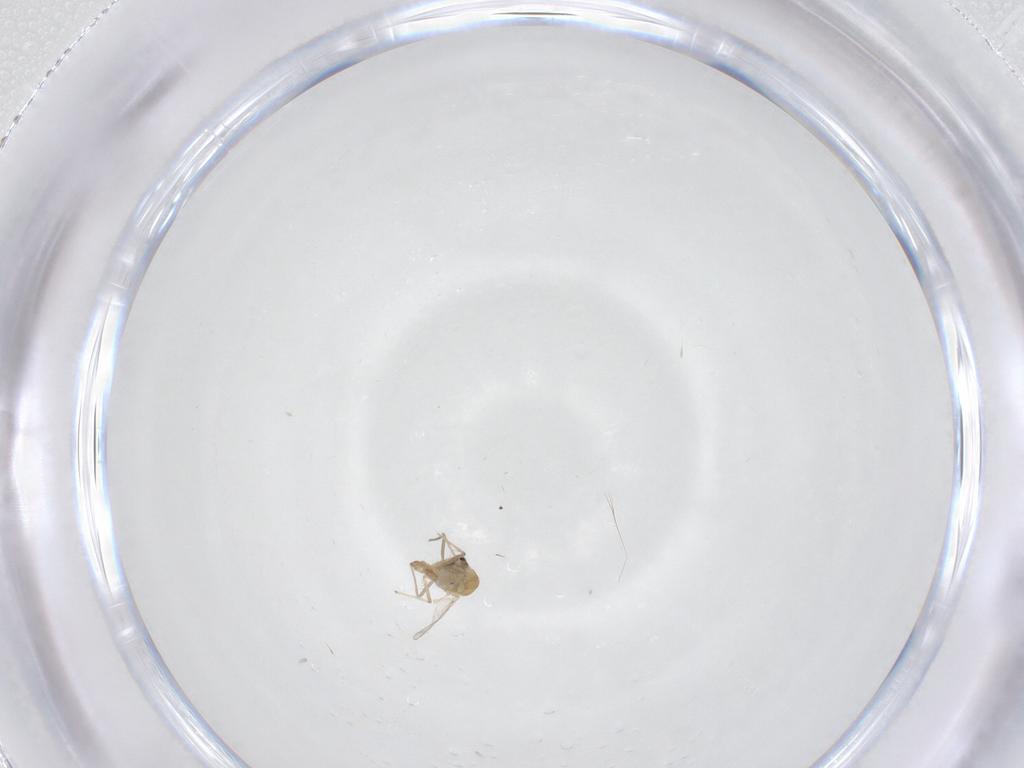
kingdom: Animalia
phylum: Arthropoda
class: Insecta
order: Diptera
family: Chironomidae
